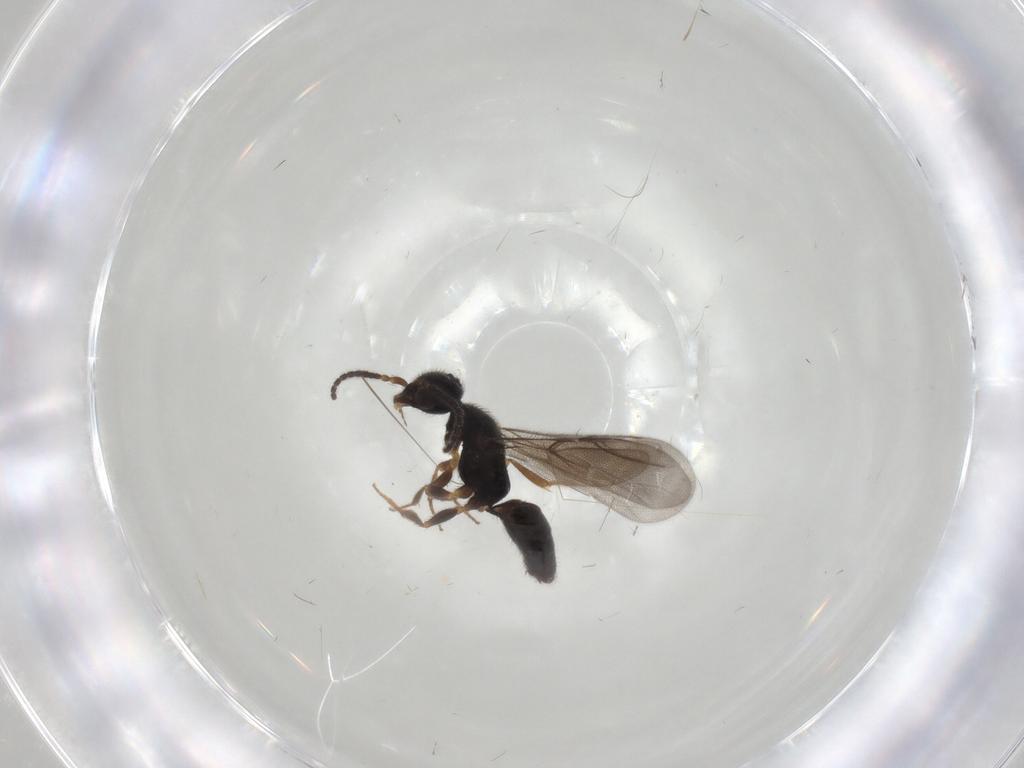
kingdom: Animalia
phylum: Arthropoda
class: Insecta
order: Hymenoptera
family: Bethylidae
